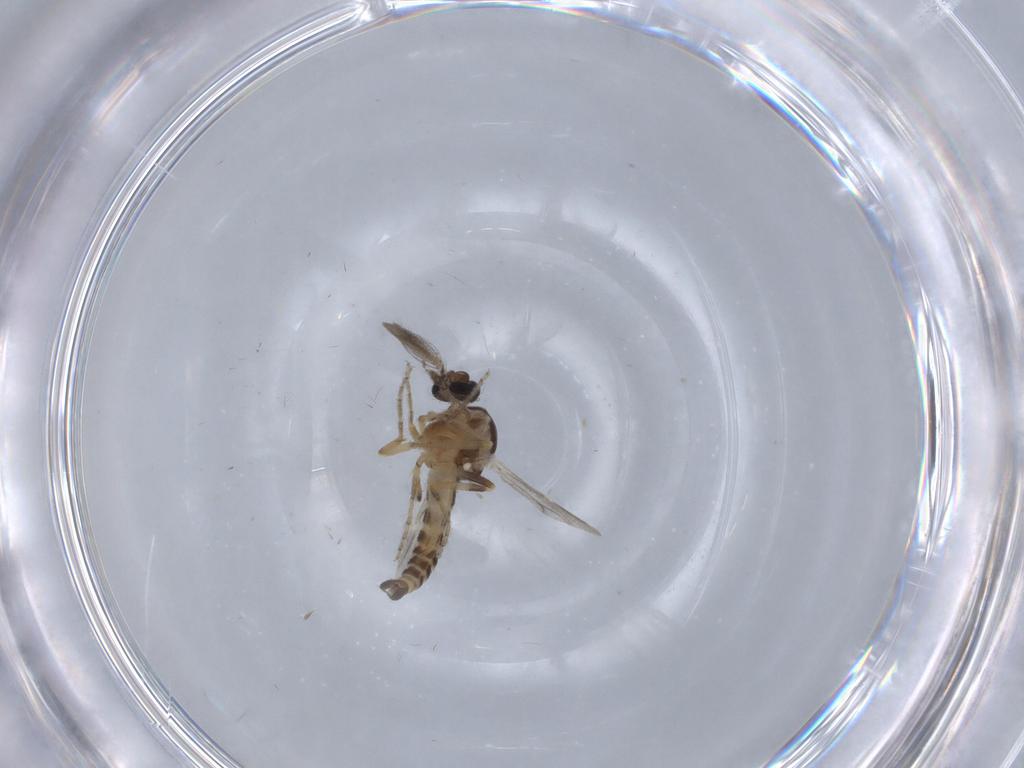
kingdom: Animalia
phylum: Arthropoda
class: Insecta
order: Diptera
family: Ceratopogonidae
